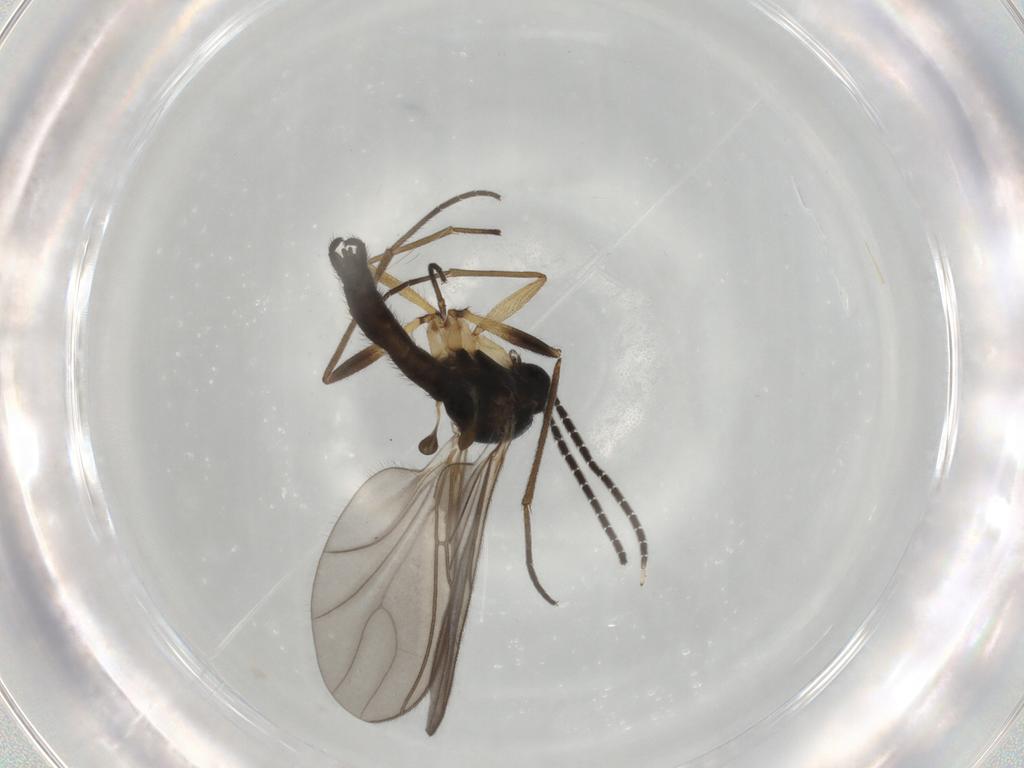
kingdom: Animalia
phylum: Arthropoda
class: Insecta
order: Diptera
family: Sciaridae
